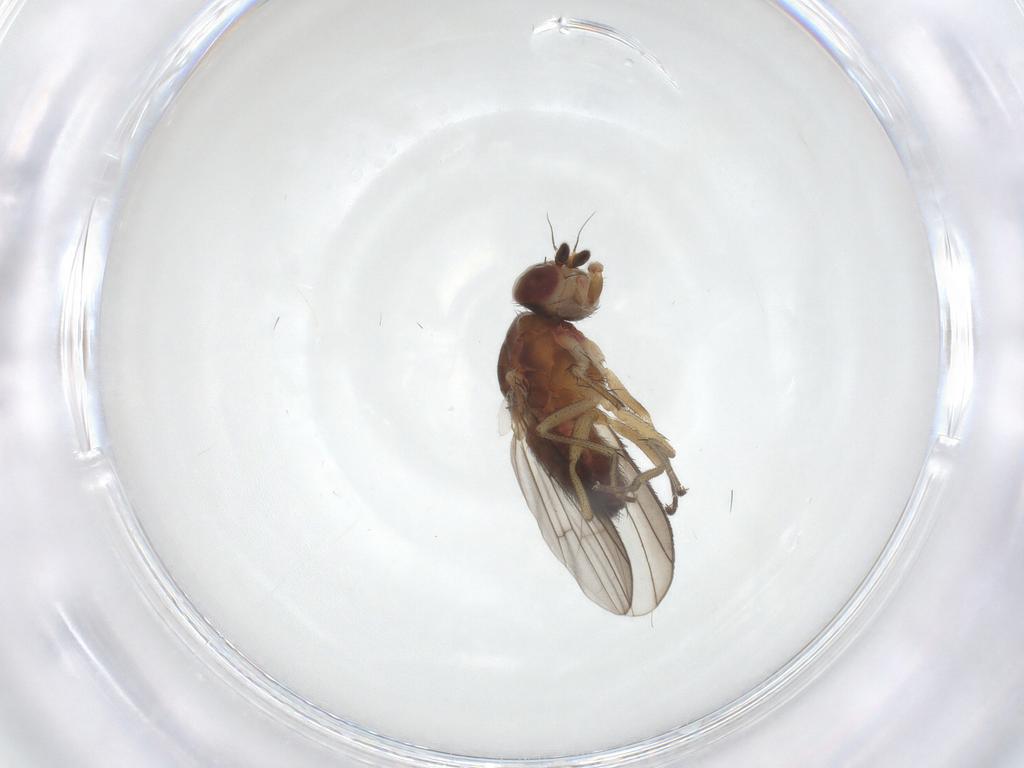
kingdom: Animalia
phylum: Arthropoda
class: Insecta
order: Diptera
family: Heleomyzidae
